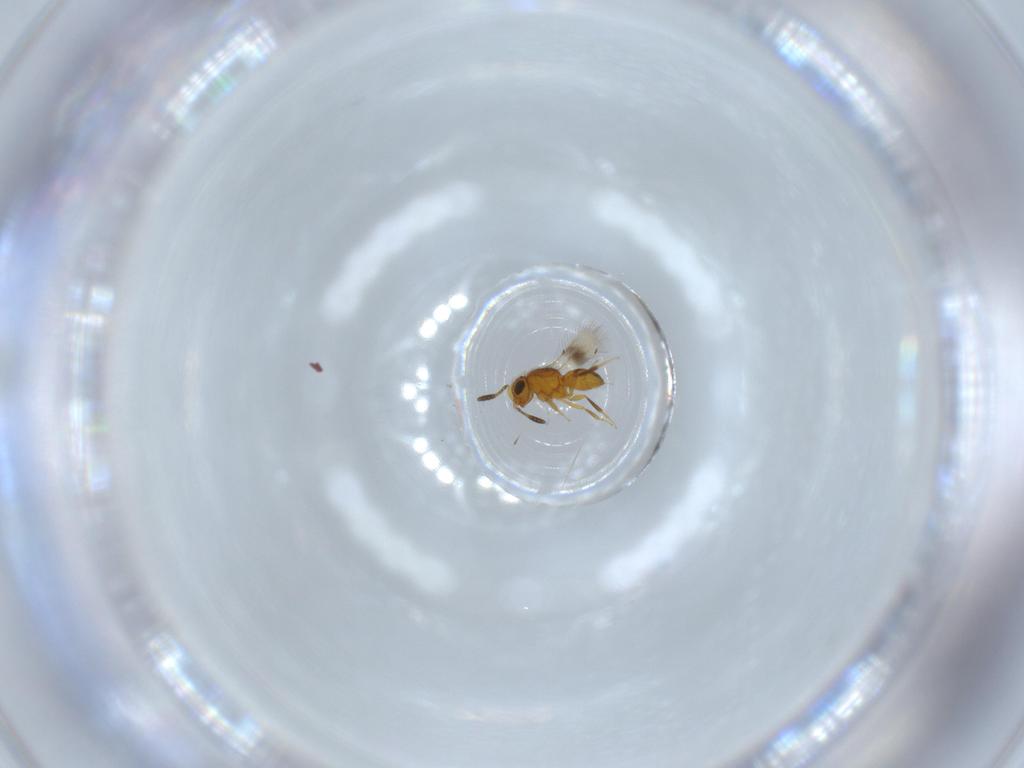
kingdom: Animalia
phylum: Arthropoda
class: Insecta
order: Hymenoptera
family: Scelionidae
